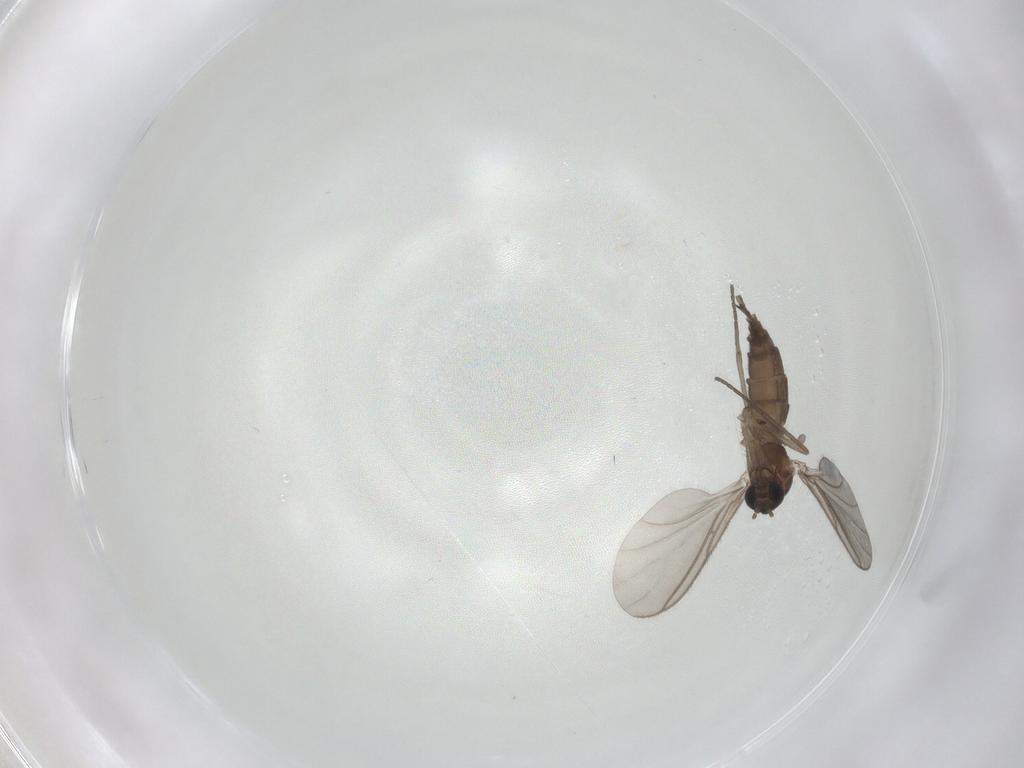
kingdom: Animalia
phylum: Arthropoda
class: Insecta
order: Diptera
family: Sciaridae
